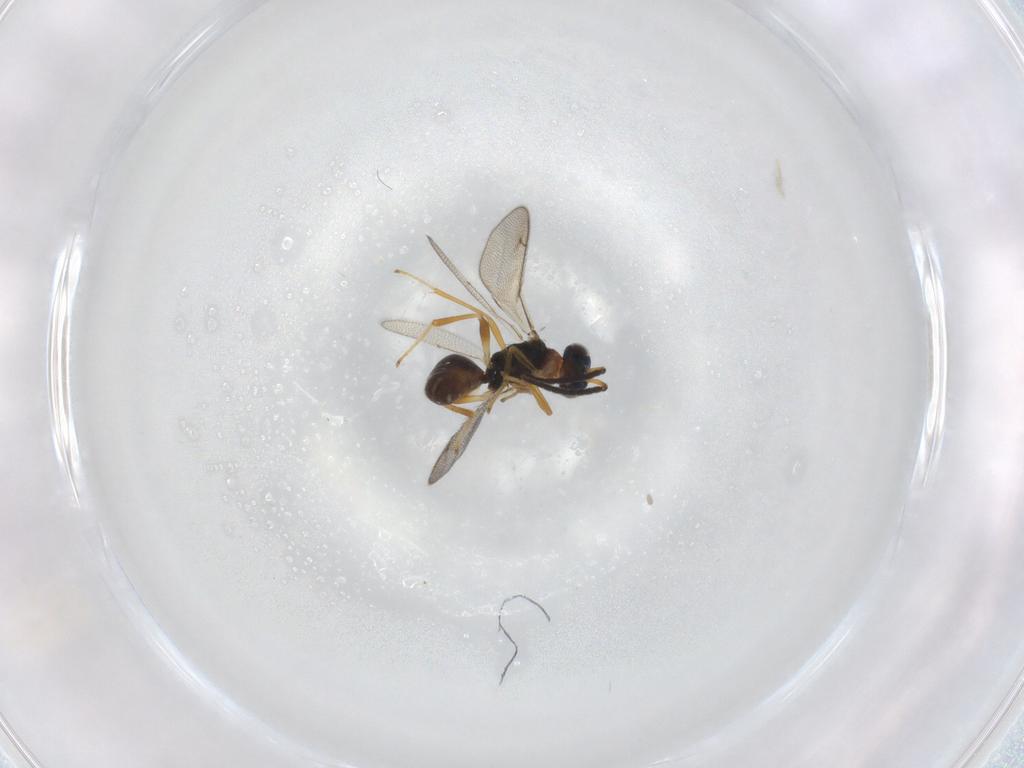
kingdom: Animalia
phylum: Arthropoda
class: Insecta
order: Hymenoptera
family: Diparidae
